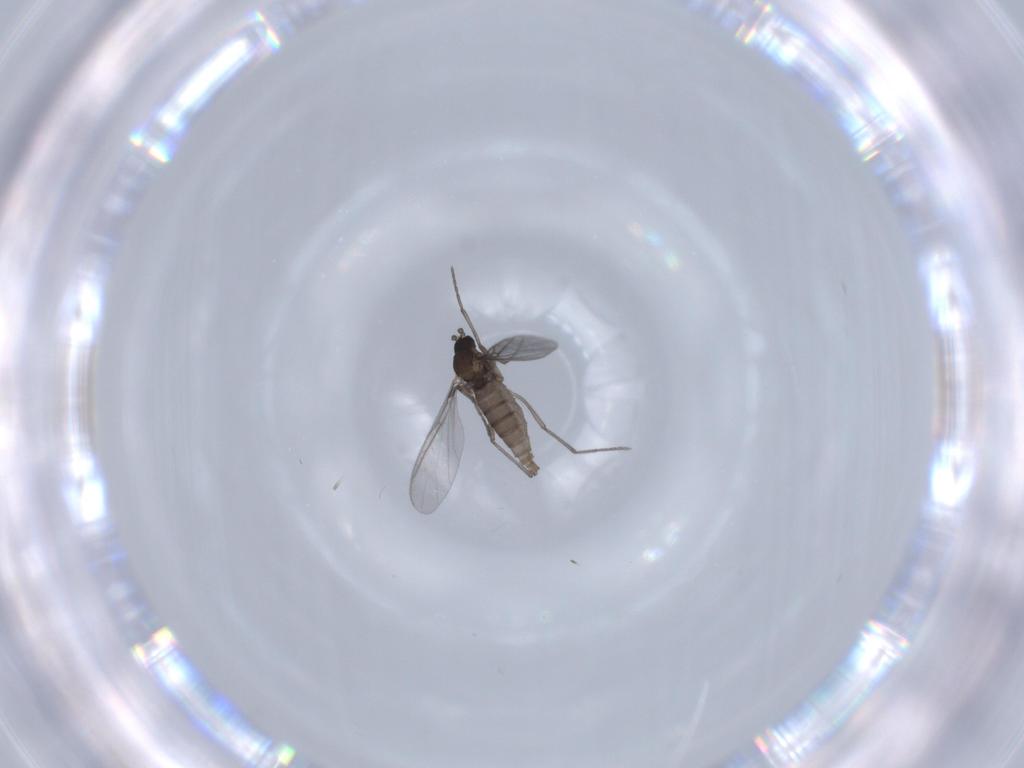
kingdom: Animalia
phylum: Arthropoda
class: Insecta
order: Diptera
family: Sciaridae
